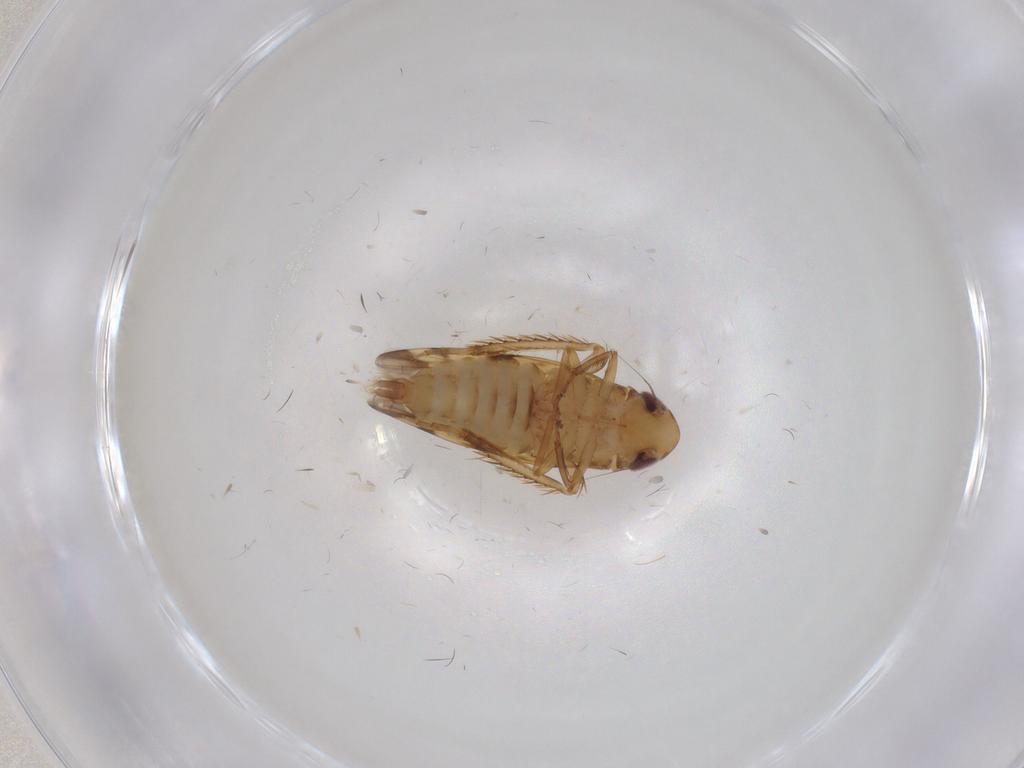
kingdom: Animalia
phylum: Arthropoda
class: Insecta
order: Hemiptera
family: Cicadellidae
